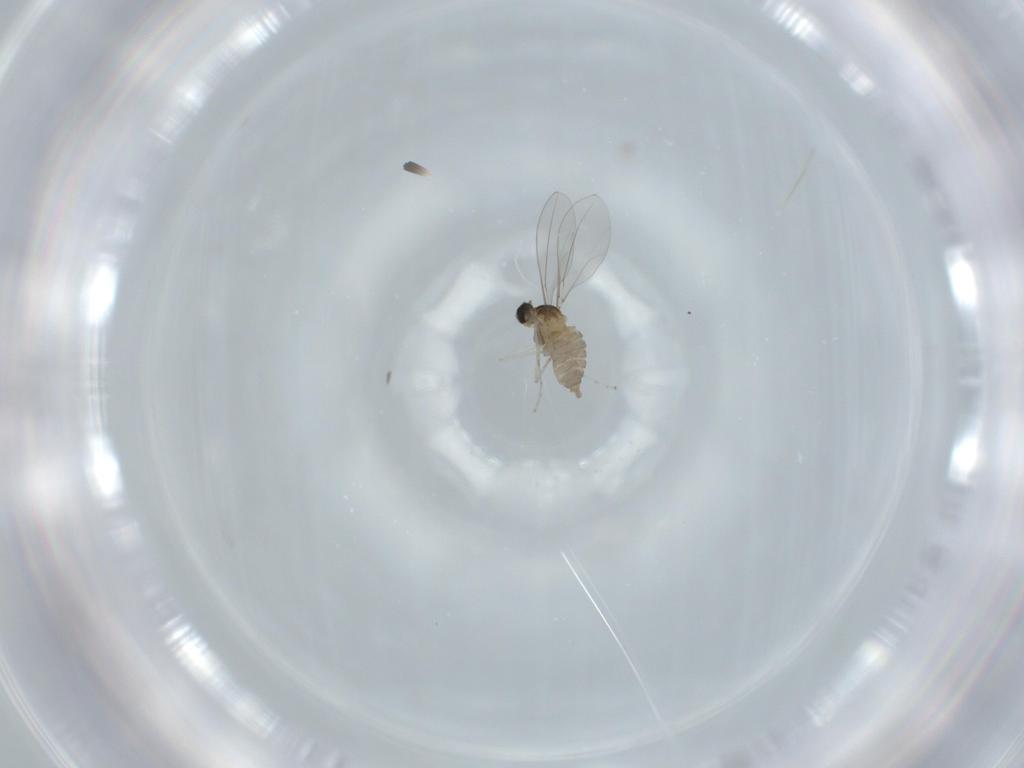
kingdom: Animalia
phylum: Arthropoda
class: Insecta
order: Diptera
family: Cecidomyiidae
